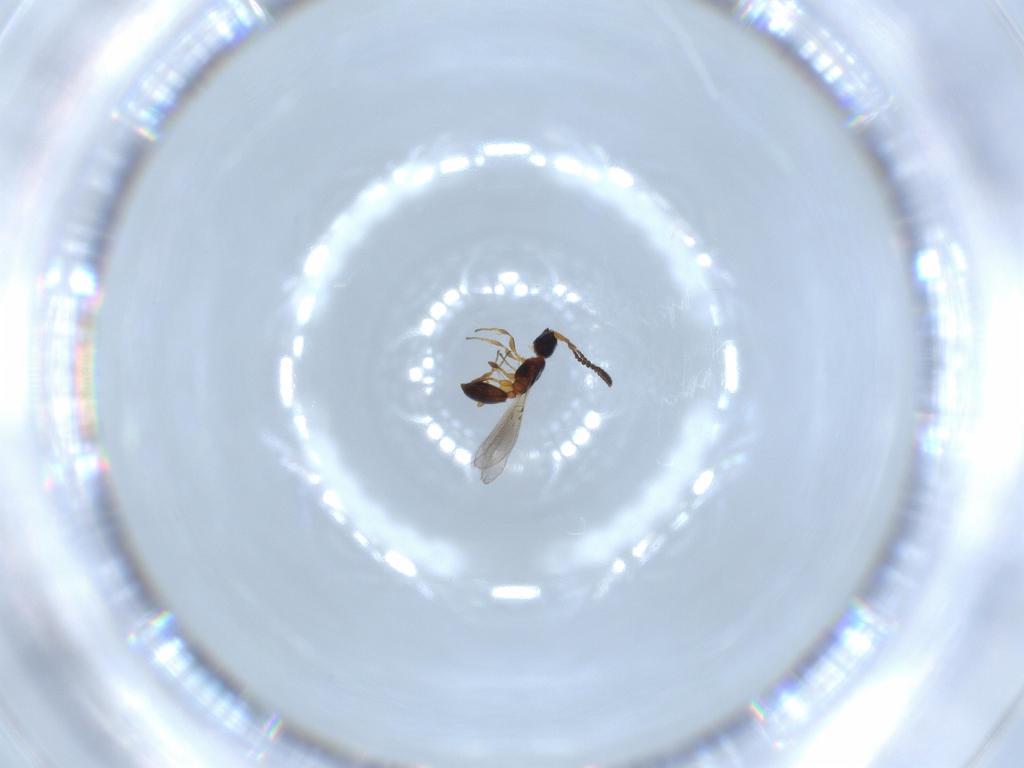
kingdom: Animalia
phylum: Arthropoda
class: Insecta
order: Hymenoptera
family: Diapriidae
